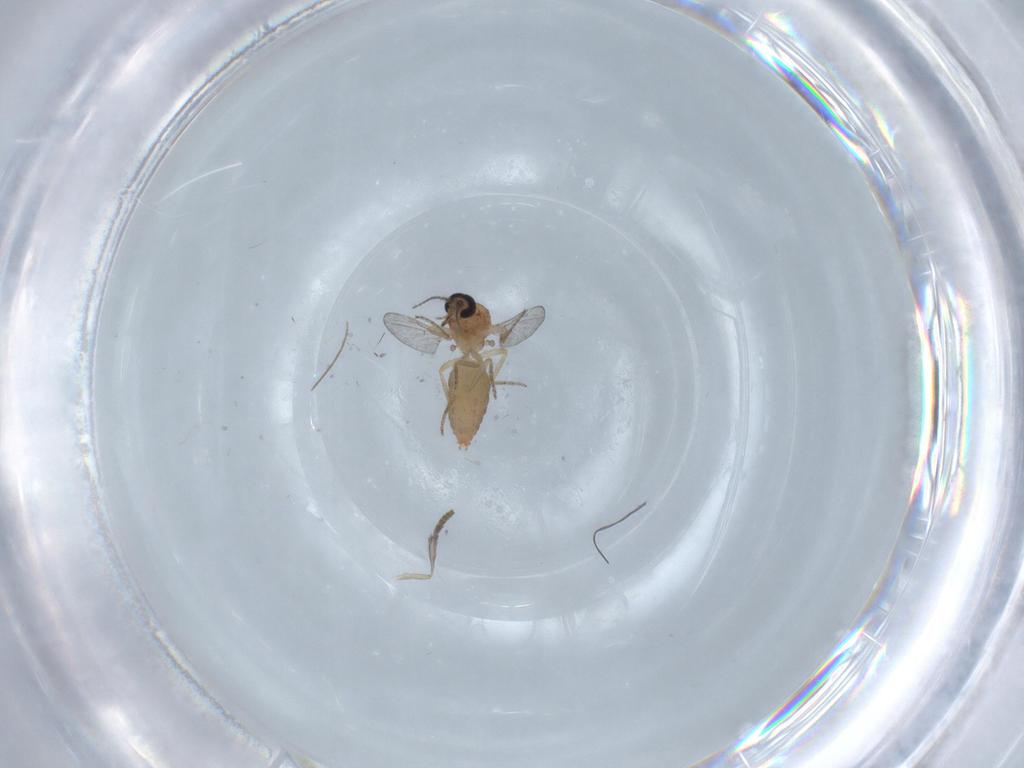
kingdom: Animalia
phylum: Arthropoda
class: Insecta
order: Diptera
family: Ceratopogonidae
